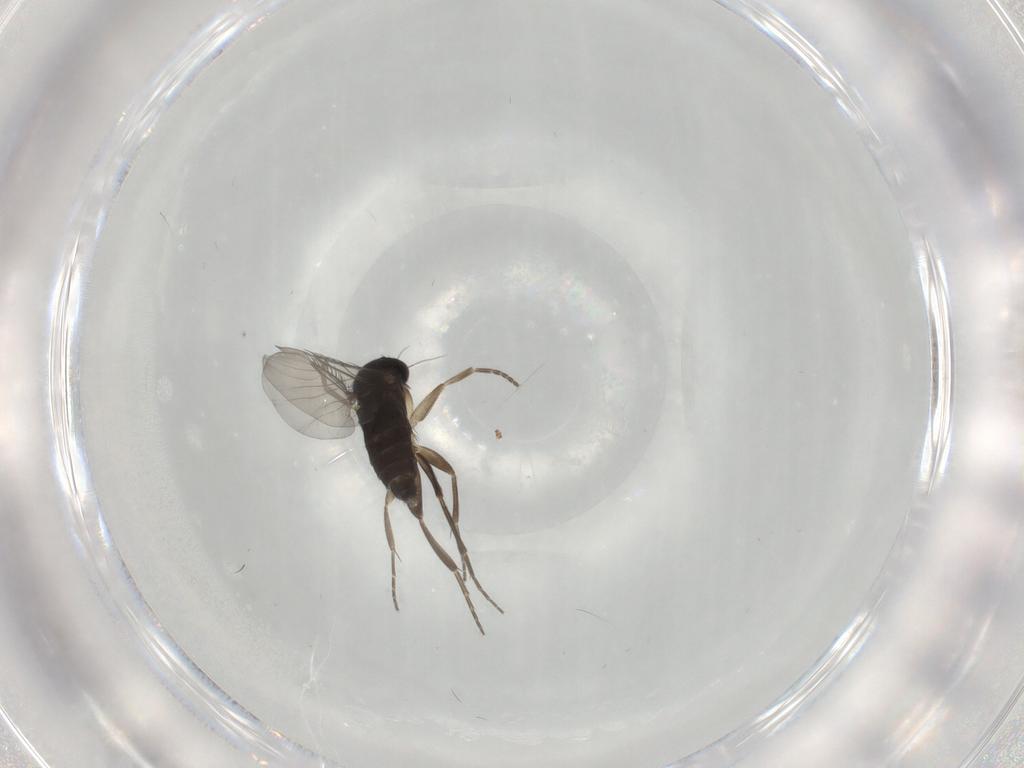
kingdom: Animalia
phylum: Arthropoda
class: Insecta
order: Diptera
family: Phoridae
